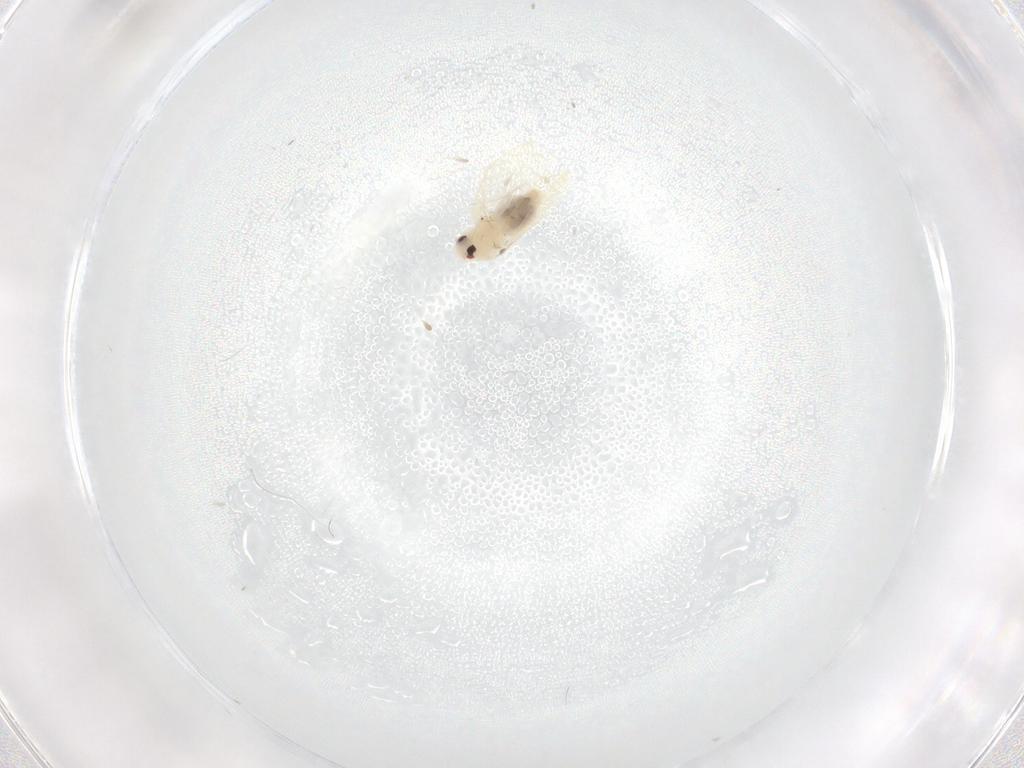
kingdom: Animalia
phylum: Arthropoda
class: Insecta
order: Hemiptera
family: Aleyrodidae
